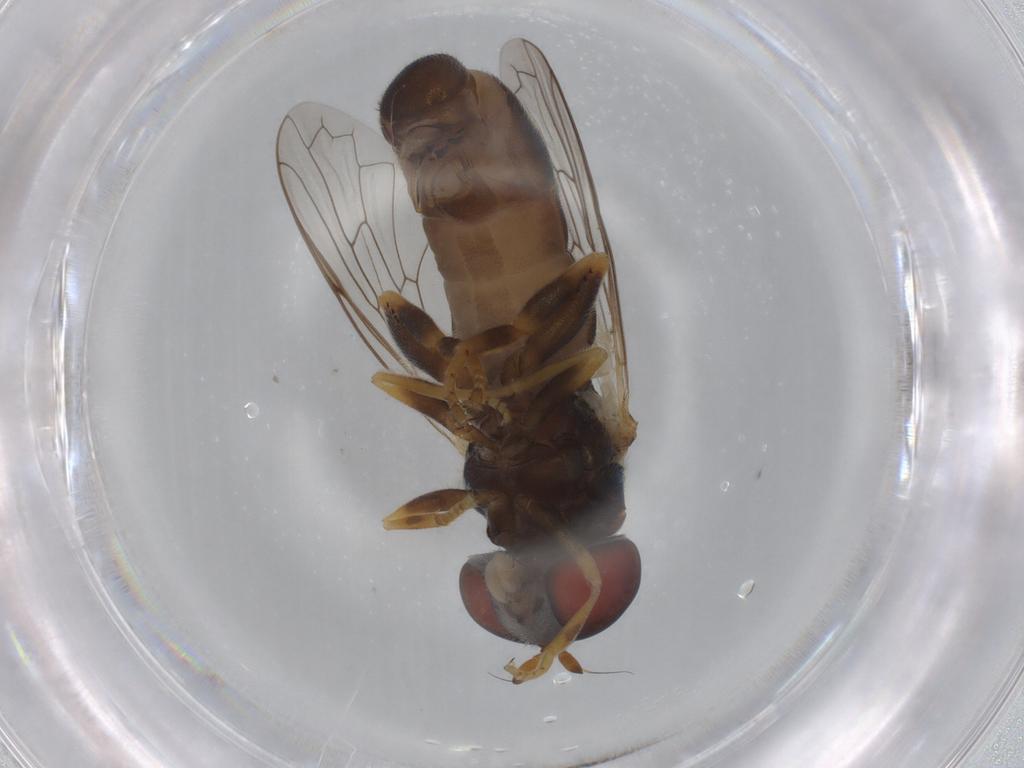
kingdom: Animalia
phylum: Arthropoda
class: Insecta
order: Diptera
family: Syrphidae
